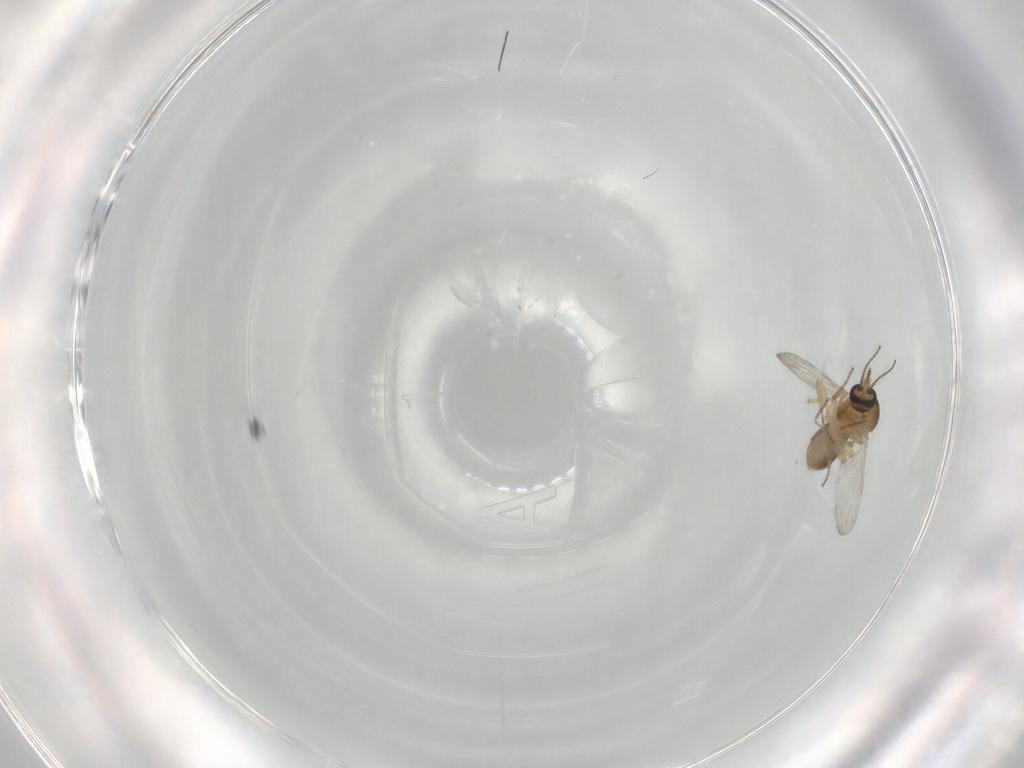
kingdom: Animalia
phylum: Arthropoda
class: Insecta
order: Diptera
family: Ceratopogonidae
